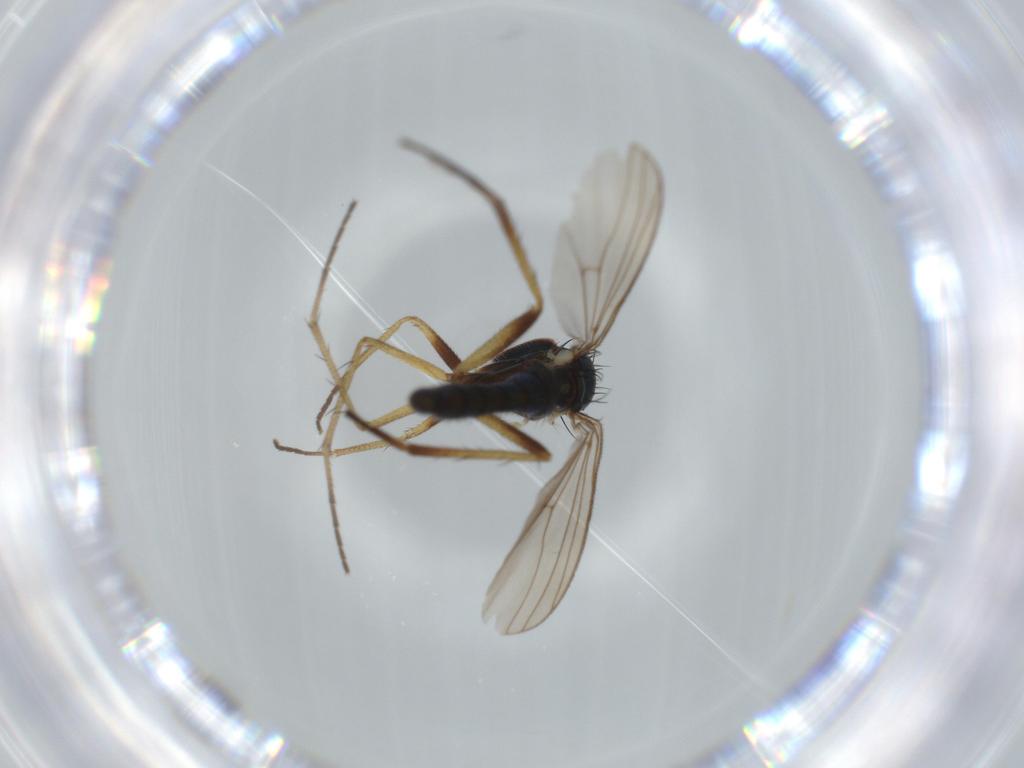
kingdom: Animalia
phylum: Arthropoda
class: Insecta
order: Diptera
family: Dolichopodidae
